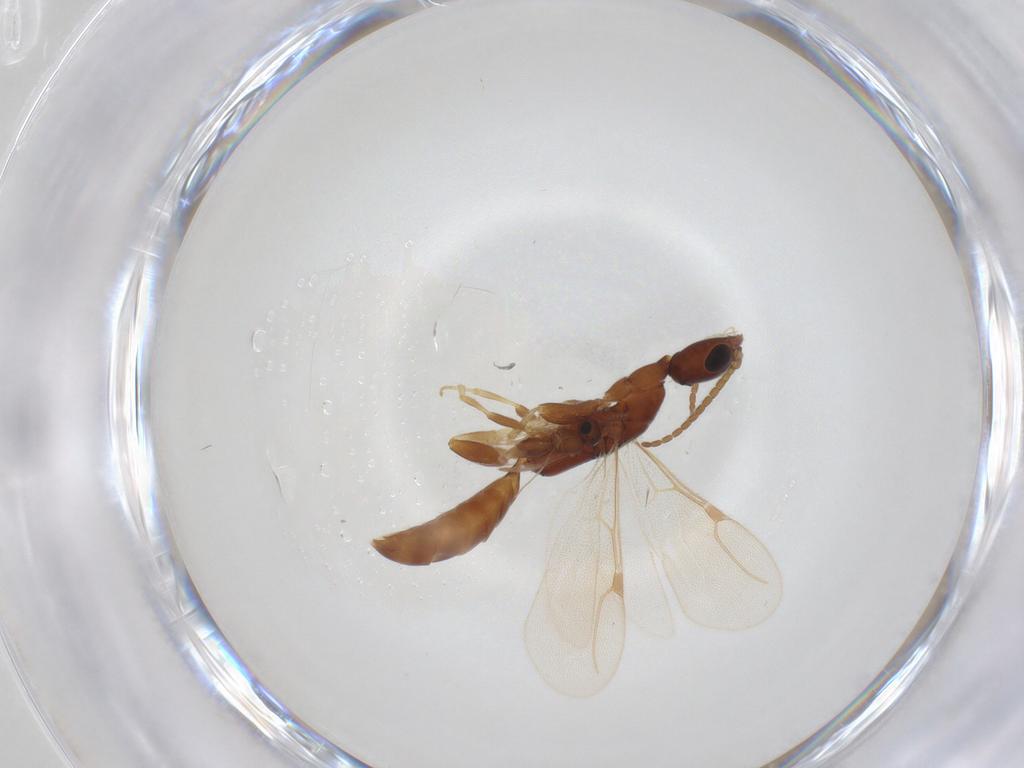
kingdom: Animalia
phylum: Arthropoda
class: Insecta
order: Hymenoptera
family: Scelionidae
